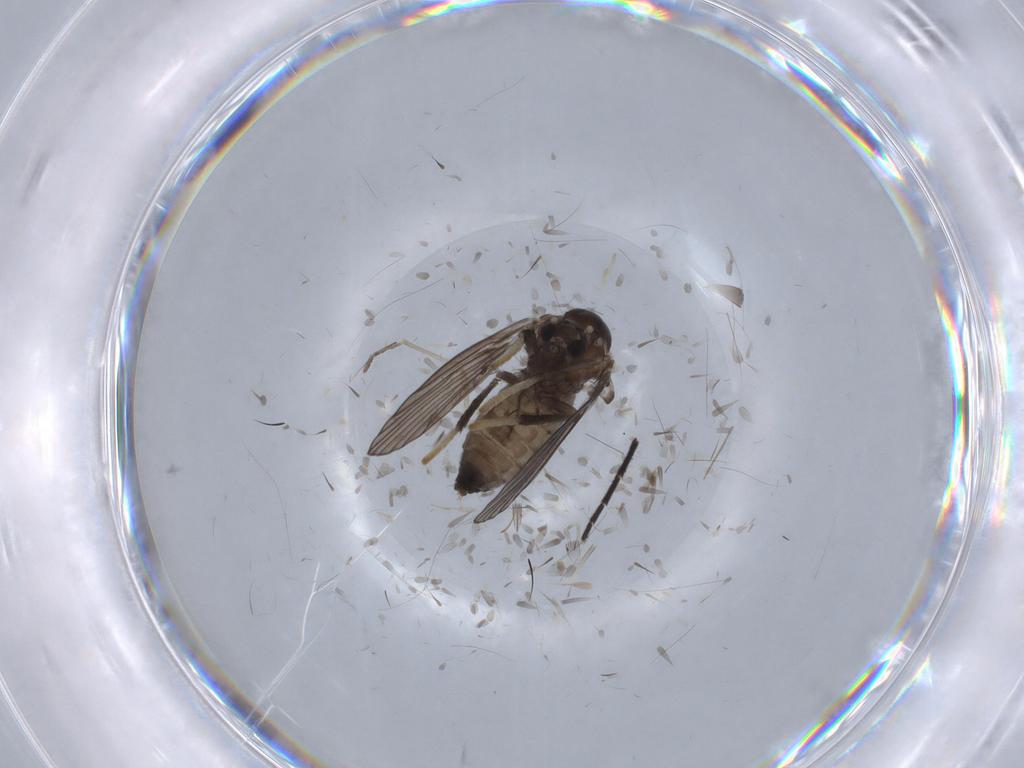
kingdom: Animalia
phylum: Arthropoda
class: Insecta
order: Diptera
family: Psychodidae
